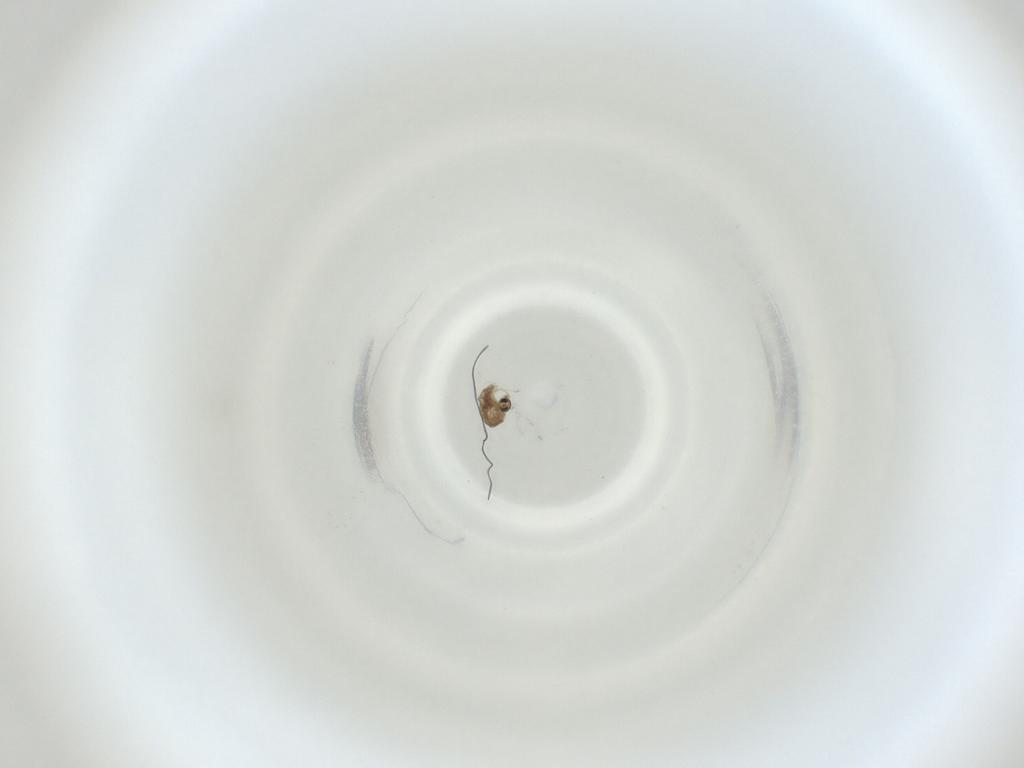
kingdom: Animalia
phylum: Arthropoda
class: Insecta
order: Diptera
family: Cecidomyiidae
